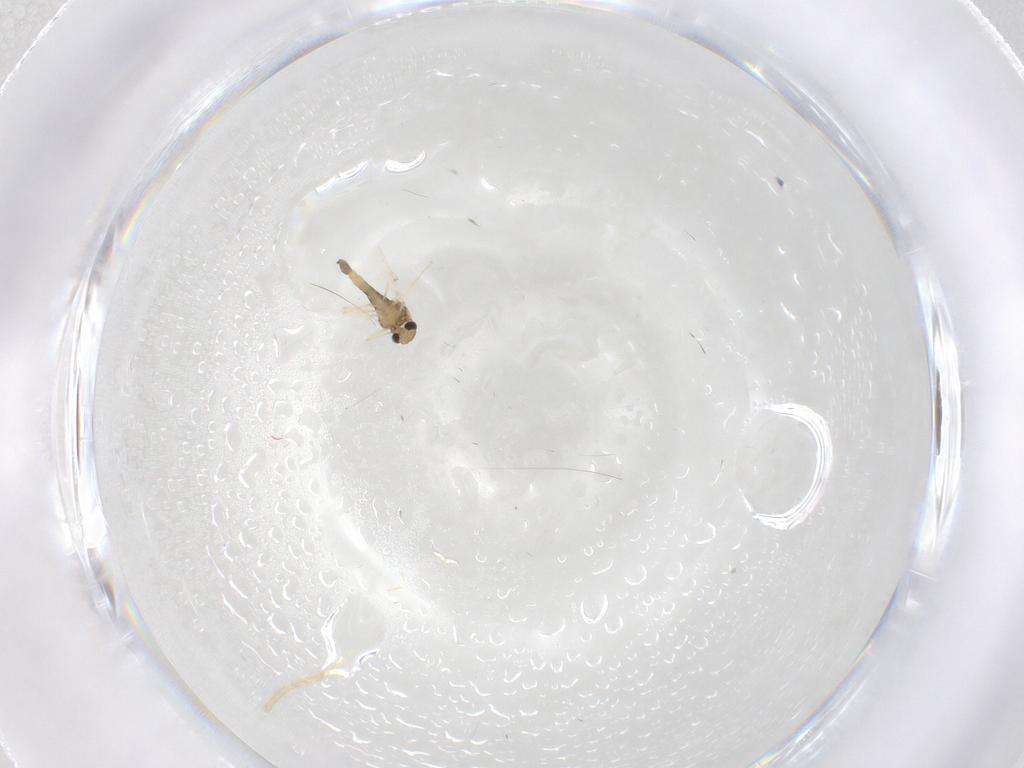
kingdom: Animalia
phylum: Arthropoda
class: Insecta
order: Diptera
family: Chironomidae
